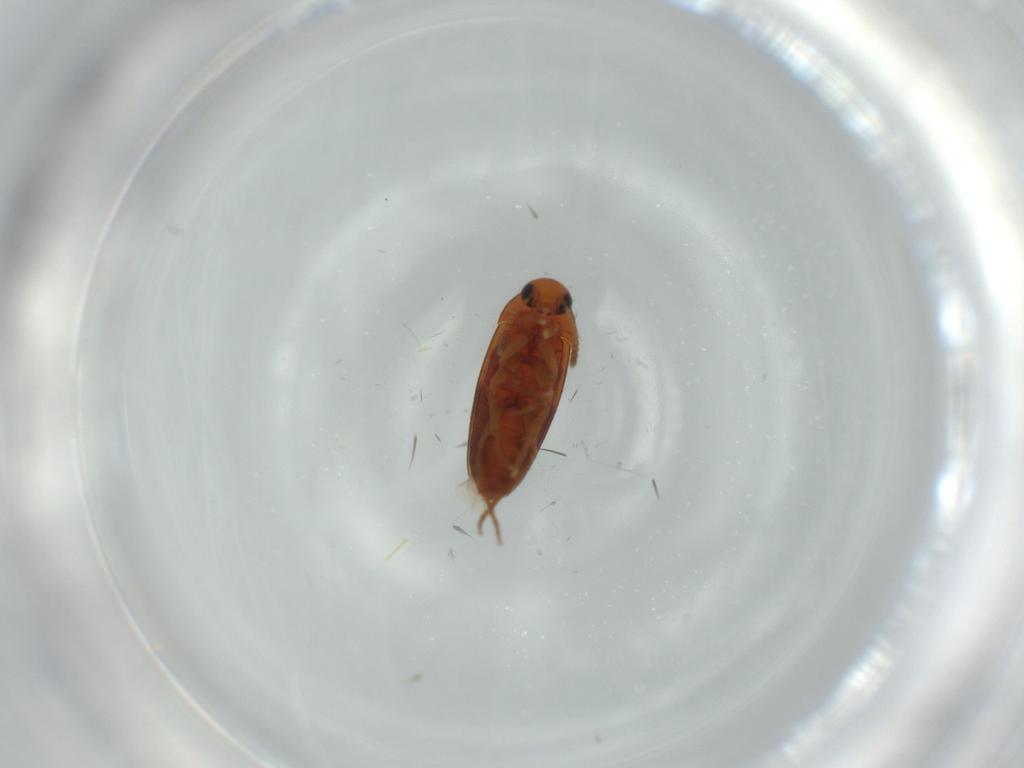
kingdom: Animalia
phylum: Arthropoda
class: Insecta
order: Coleoptera
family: Scraptiidae
